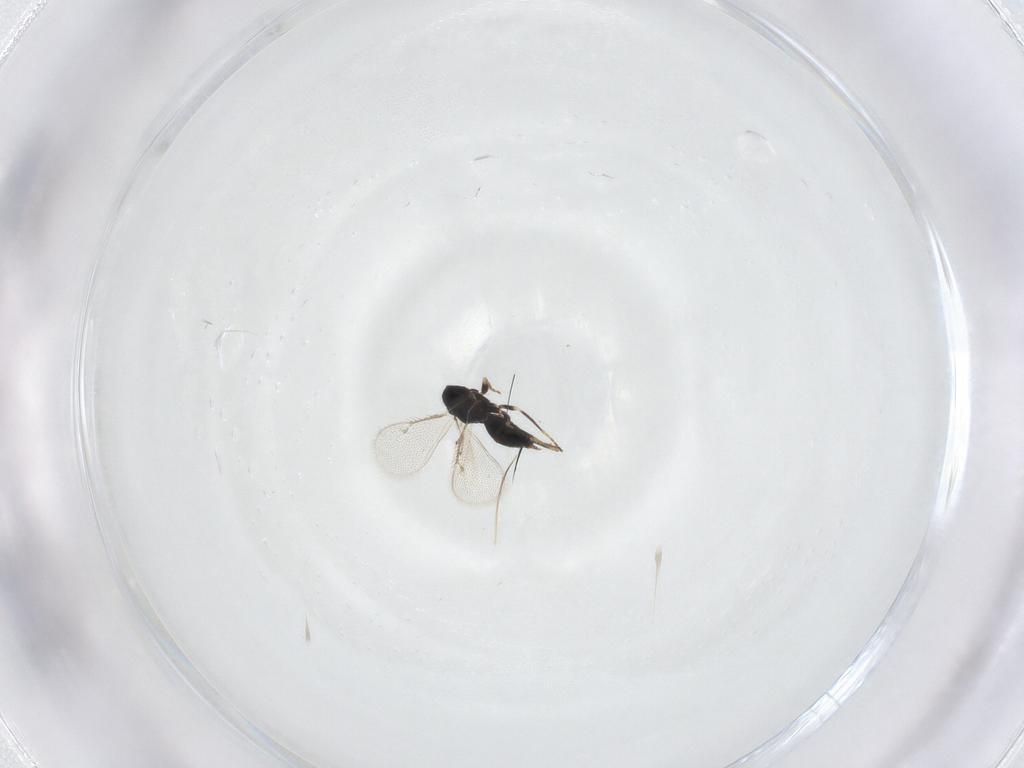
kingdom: Animalia
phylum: Arthropoda
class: Insecta
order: Hymenoptera
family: Eulophidae
